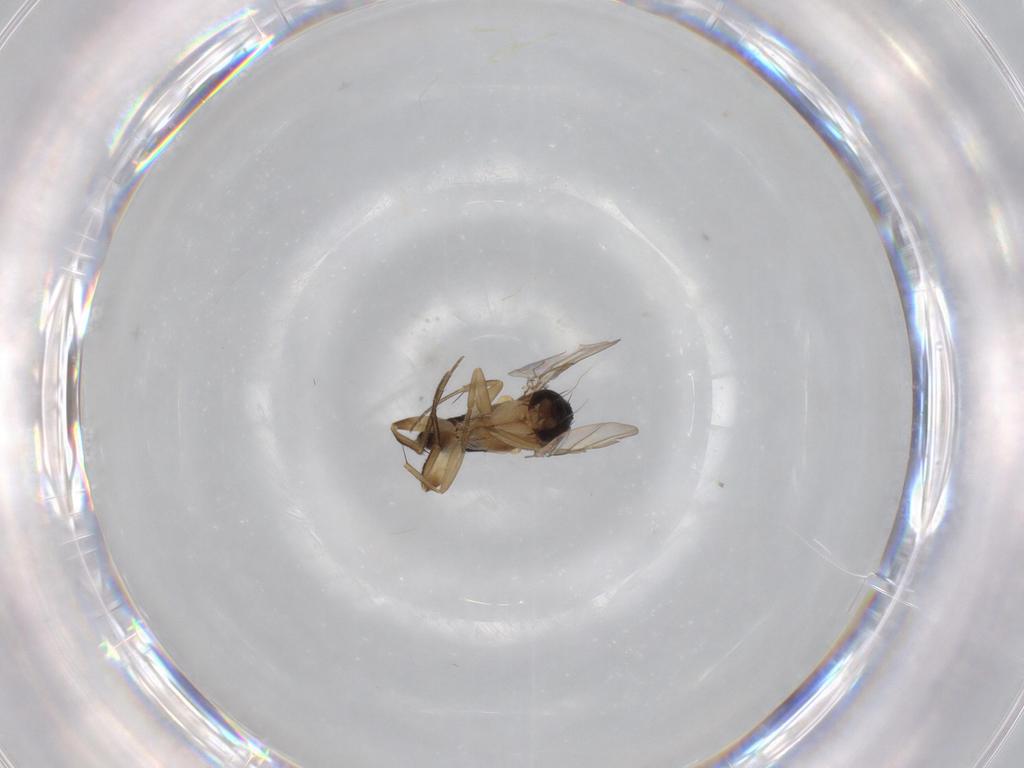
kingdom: Animalia
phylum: Arthropoda
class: Insecta
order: Diptera
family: Phoridae
